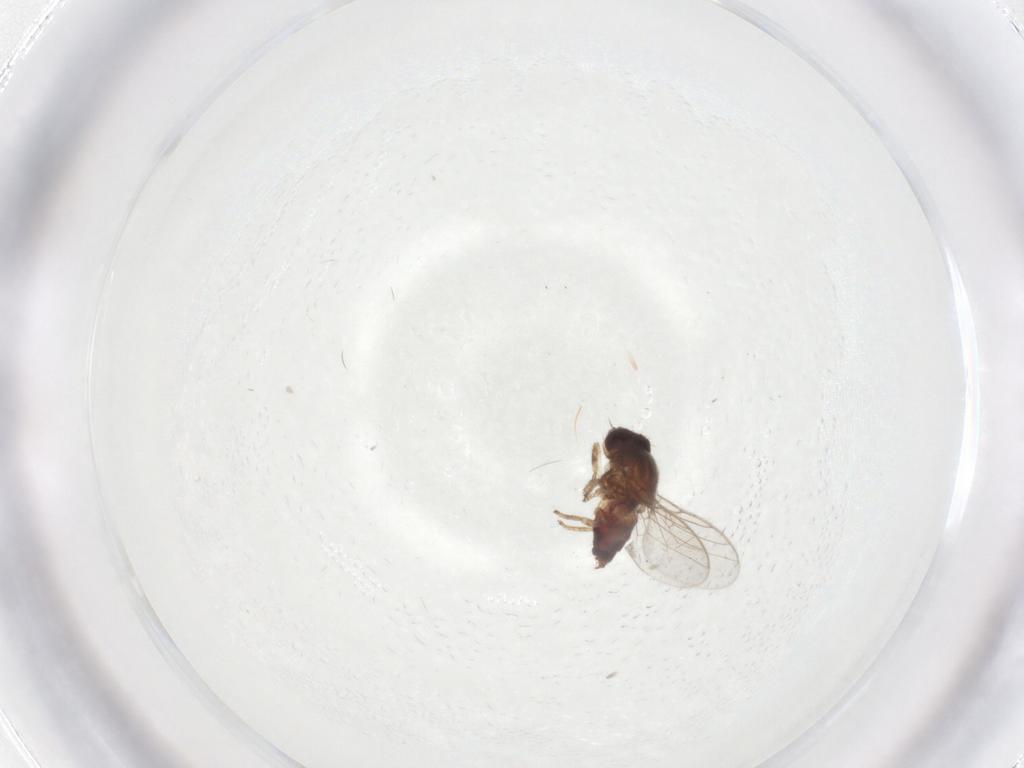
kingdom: Animalia
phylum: Arthropoda
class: Insecta
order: Diptera
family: Chloropidae
